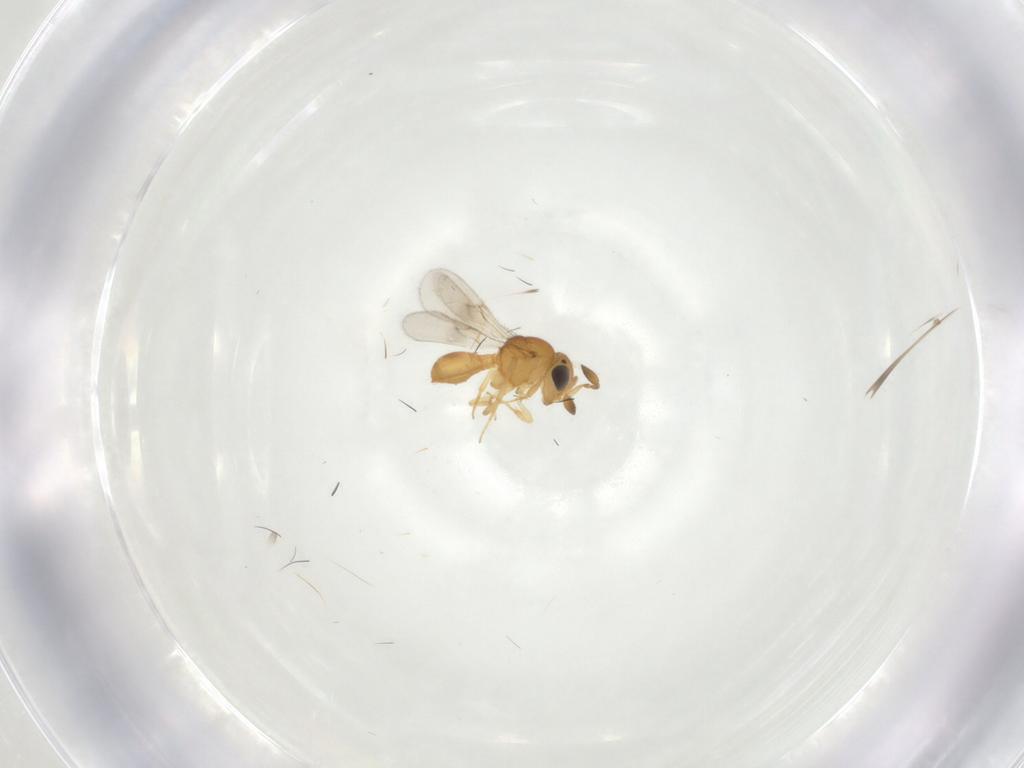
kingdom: Animalia
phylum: Arthropoda
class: Insecta
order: Hymenoptera
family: Scelionidae
